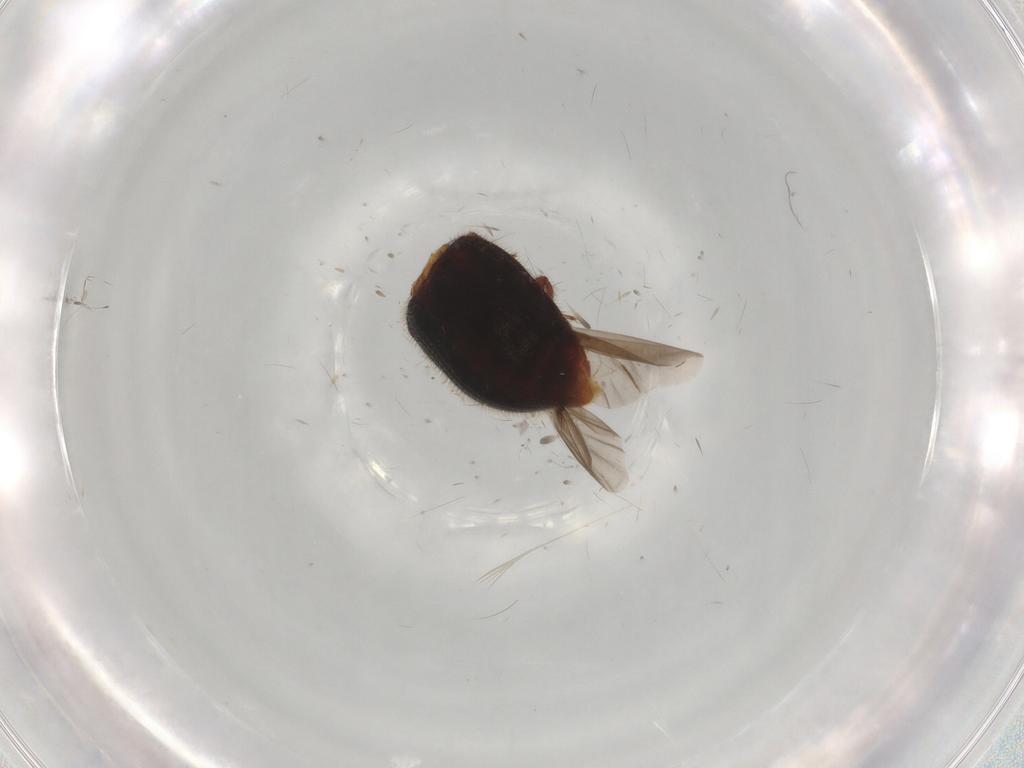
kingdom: Animalia
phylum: Arthropoda
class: Insecta
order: Coleoptera
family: Sphindidae
